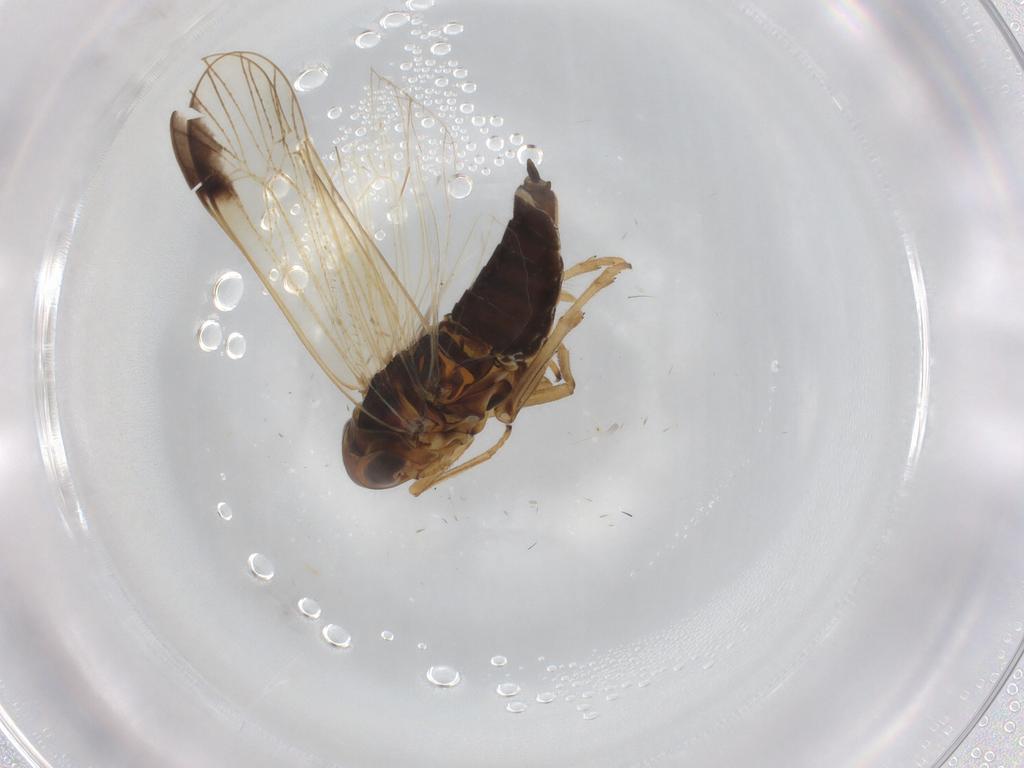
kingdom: Animalia
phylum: Arthropoda
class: Insecta
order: Hemiptera
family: Delphacidae
